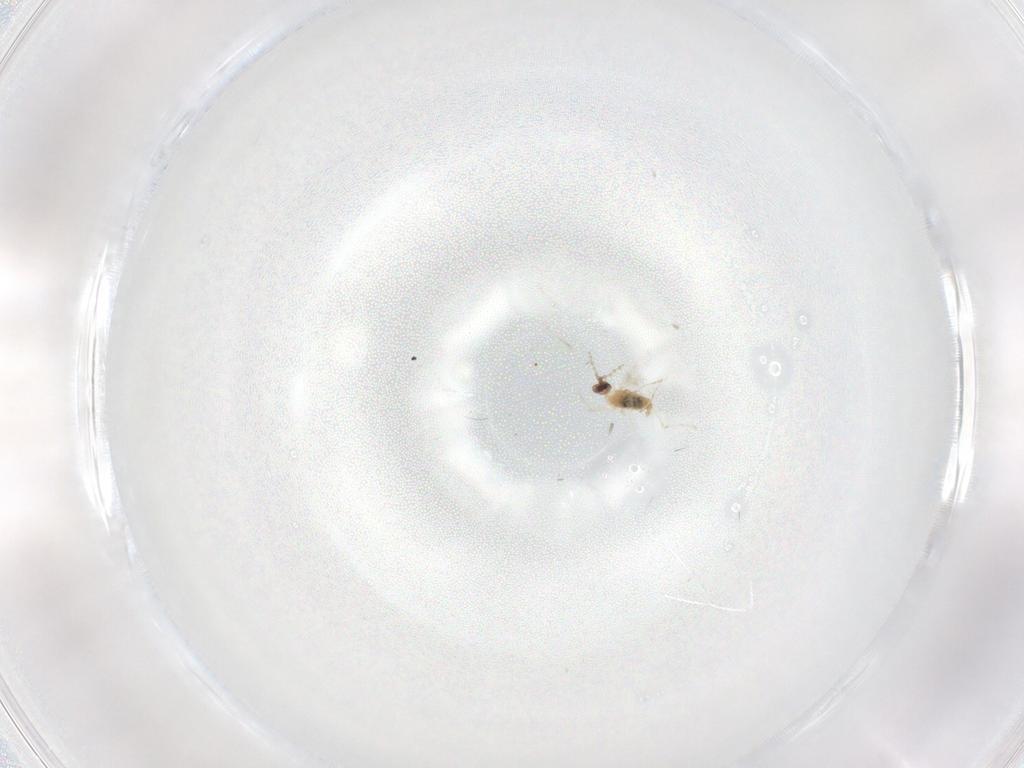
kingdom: Animalia
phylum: Arthropoda
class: Insecta
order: Diptera
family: Cecidomyiidae
